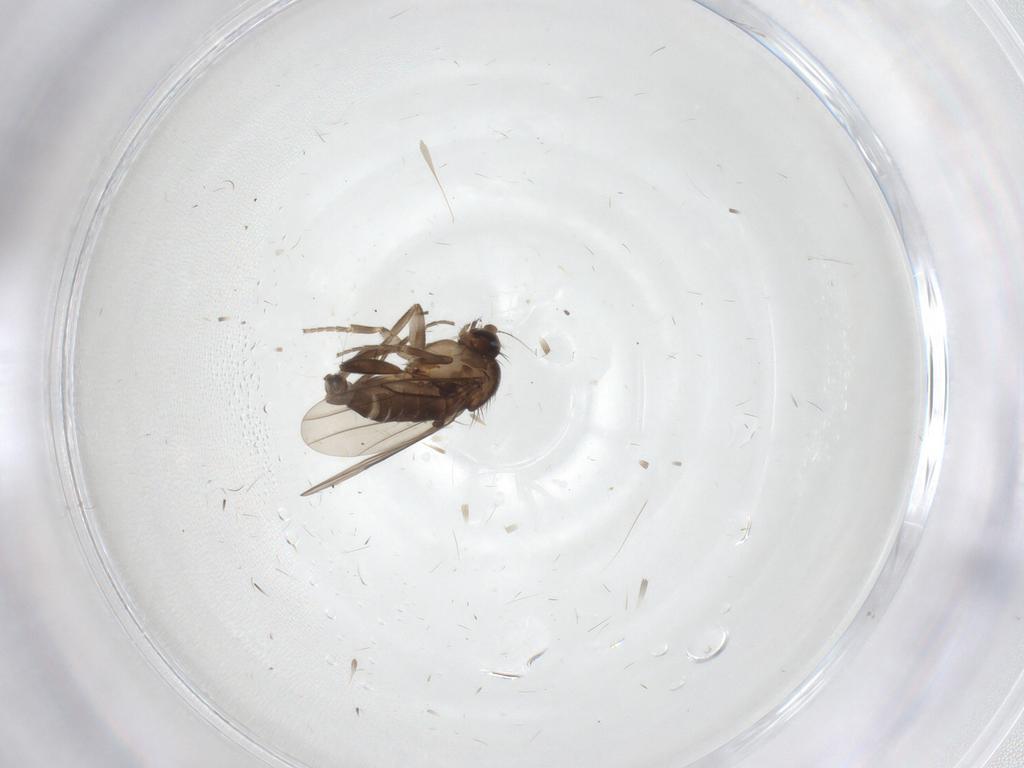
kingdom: Animalia
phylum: Arthropoda
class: Insecta
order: Diptera
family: Cecidomyiidae
